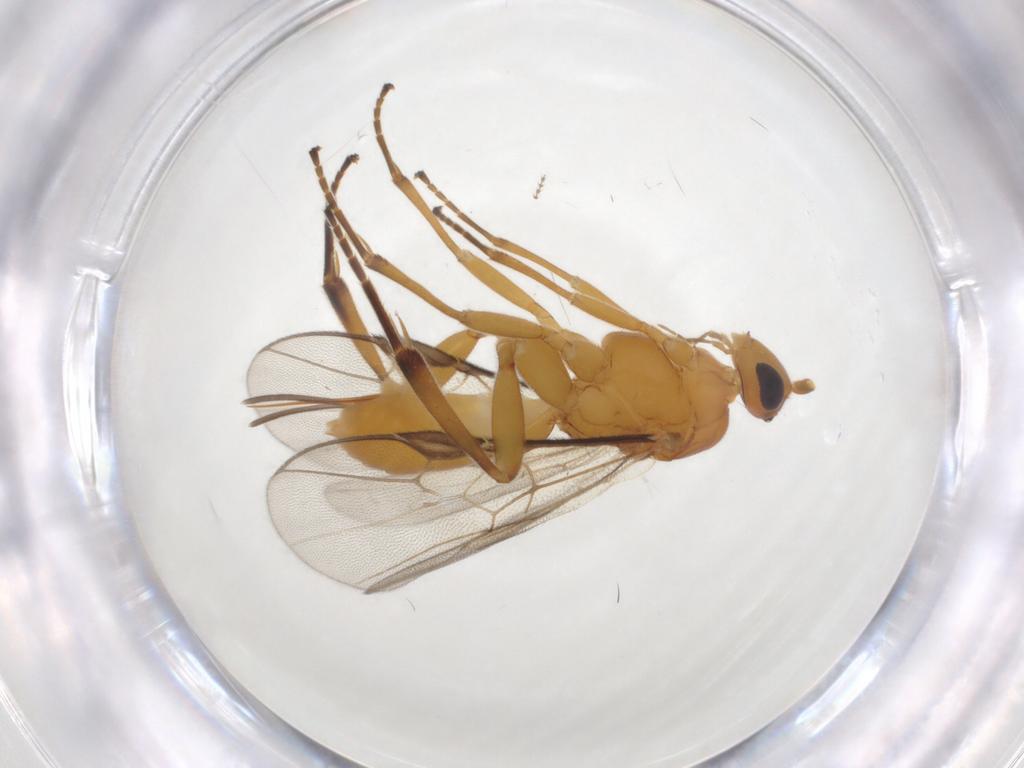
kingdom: Animalia
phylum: Arthropoda
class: Insecta
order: Hymenoptera
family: Braconidae
